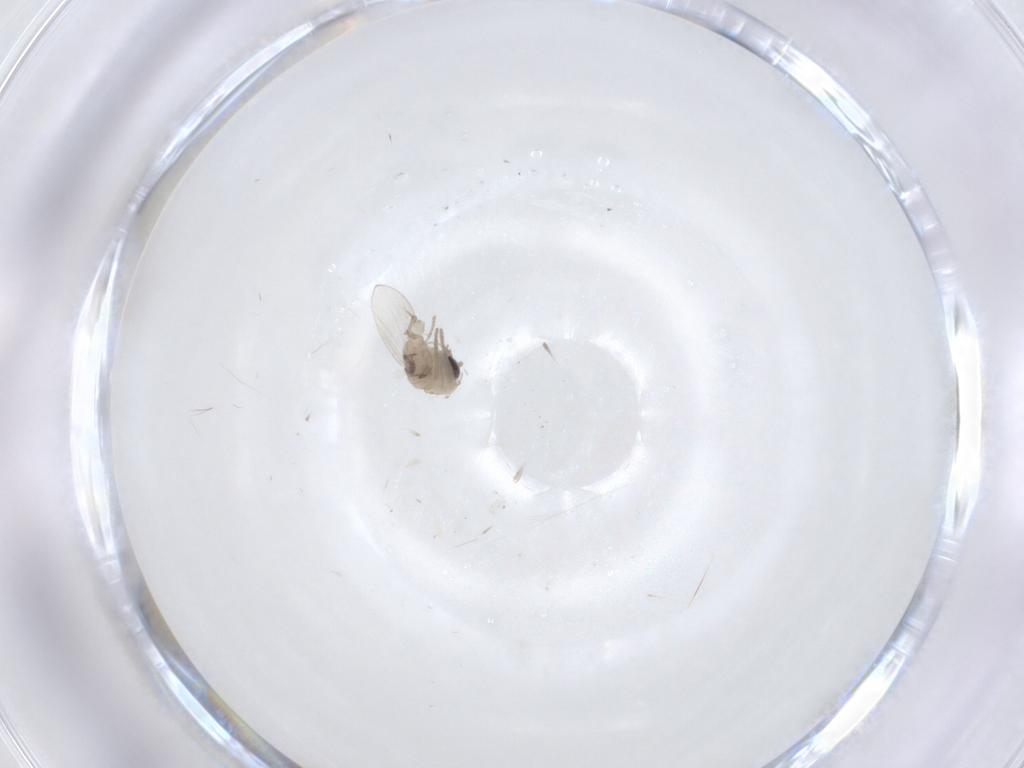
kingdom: Animalia
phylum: Arthropoda
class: Insecta
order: Diptera
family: Psychodidae
